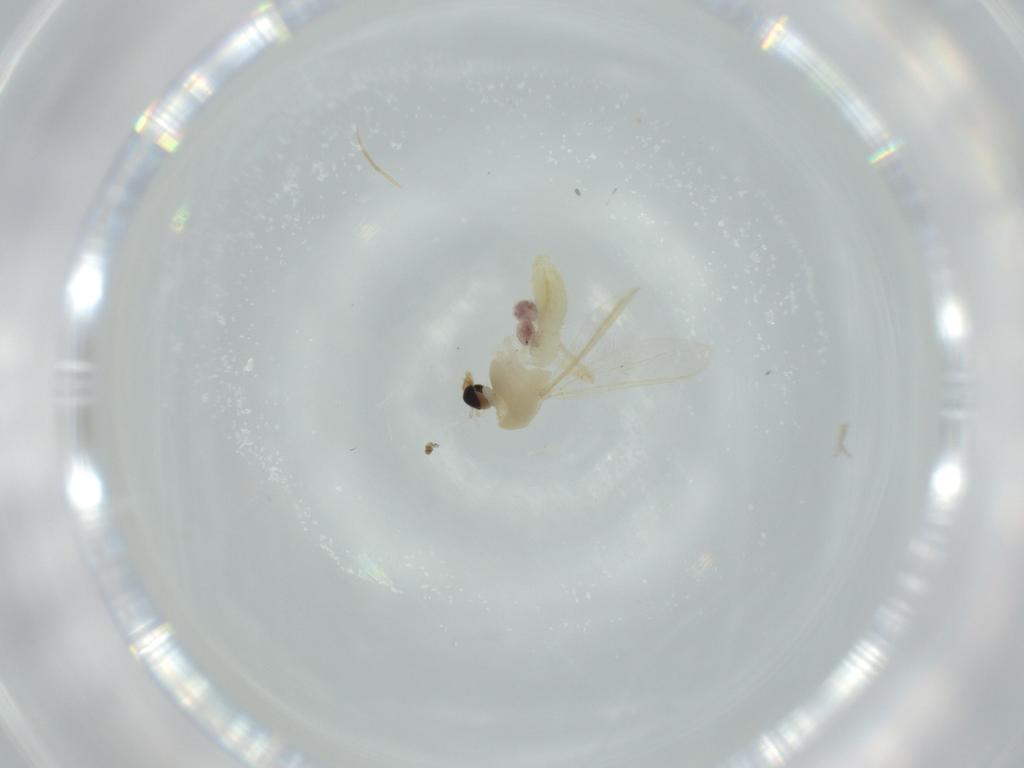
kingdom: Animalia
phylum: Arthropoda
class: Insecta
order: Diptera
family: Chironomidae
